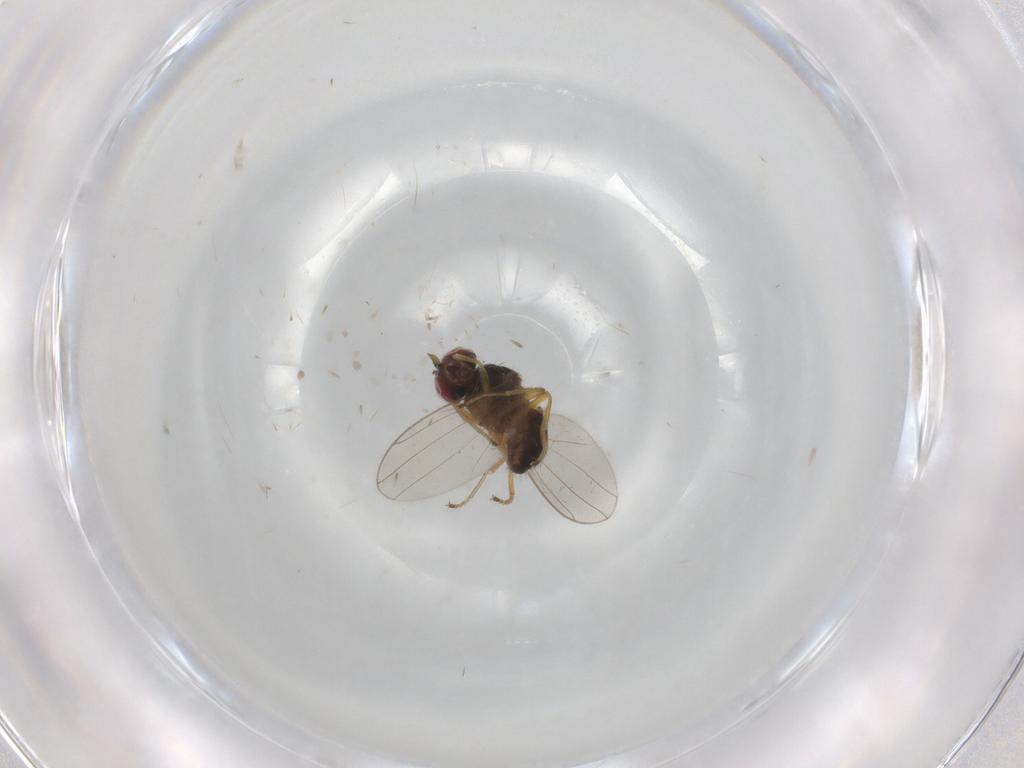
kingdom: Animalia
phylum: Arthropoda
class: Insecta
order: Diptera
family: Ephydridae
